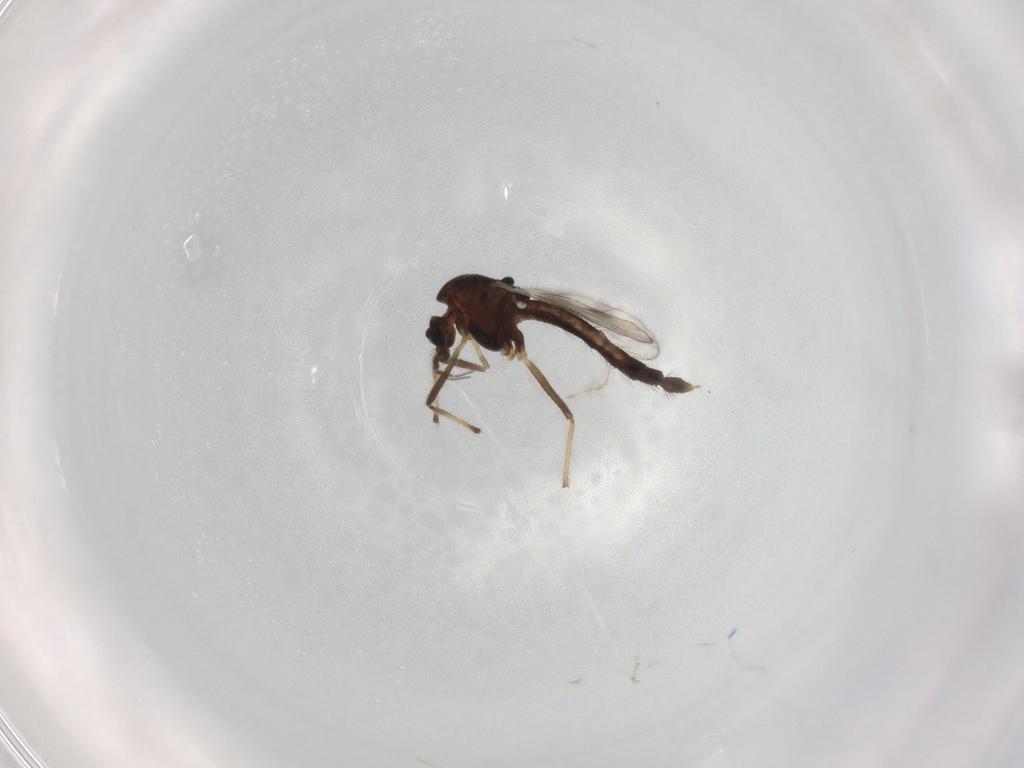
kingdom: Animalia
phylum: Arthropoda
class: Insecta
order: Diptera
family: Chironomidae
